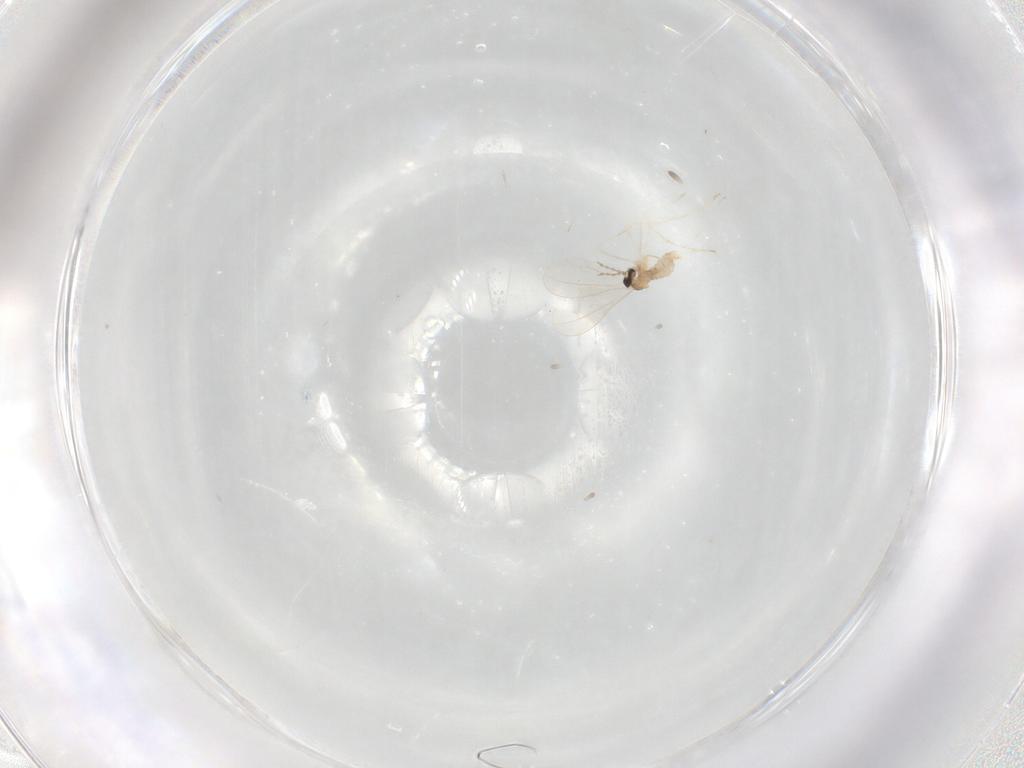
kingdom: Animalia
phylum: Arthropoda
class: Insecta
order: Diptera
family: Cecidomyiidae
